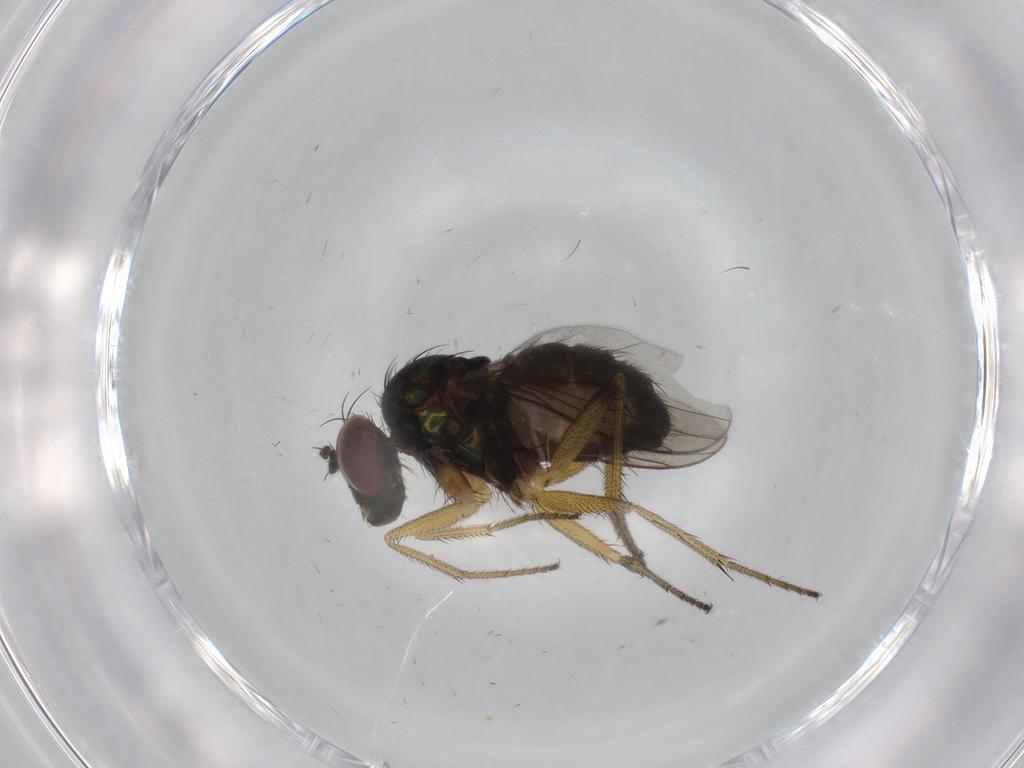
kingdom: Animalia
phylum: Arthropoda
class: Insecta
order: Diptera
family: Dolichopodidae
